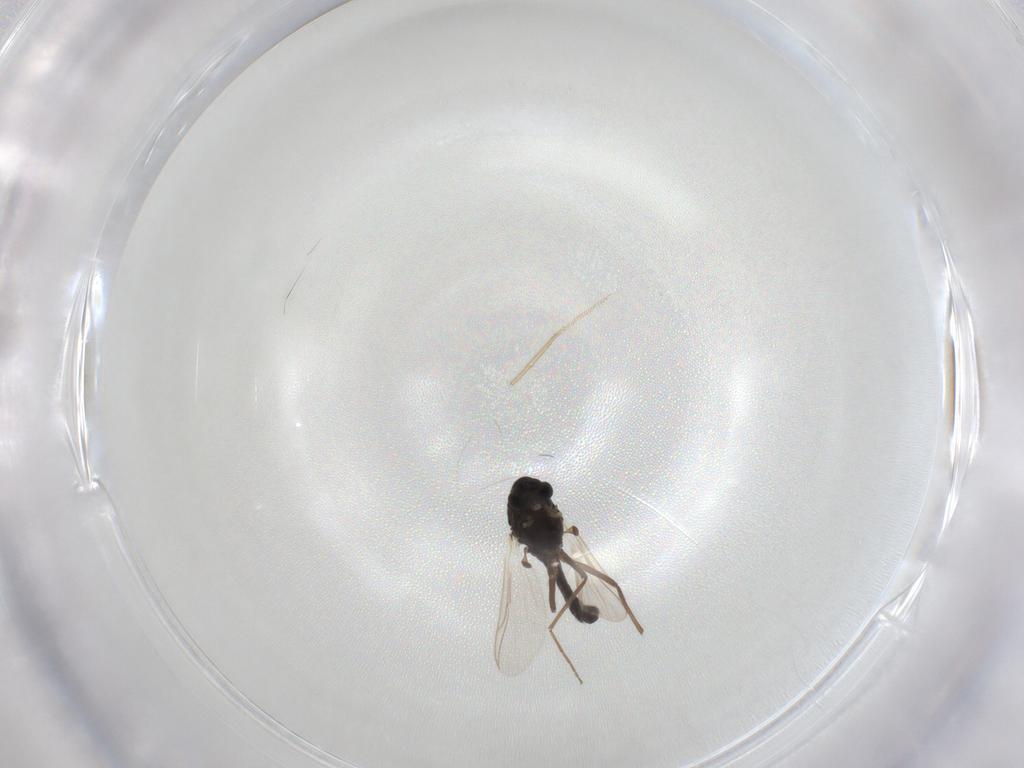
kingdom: Animalia
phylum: Arthropoda
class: Insecta
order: Diptera
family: Chironomidae
